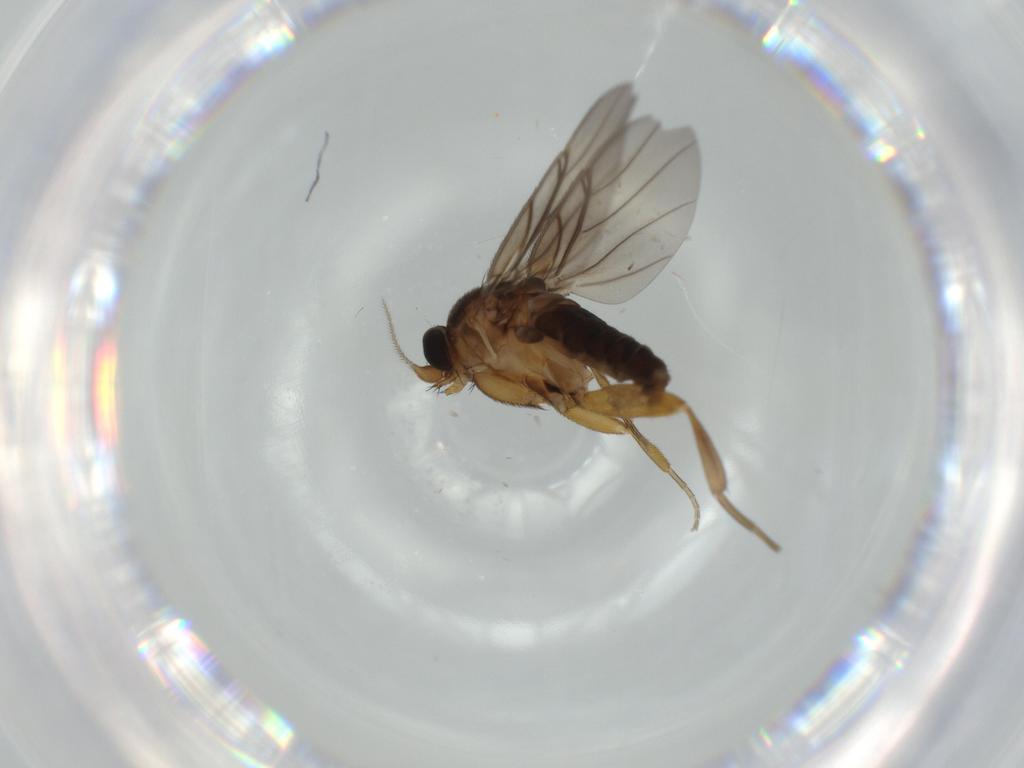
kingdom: Animalia
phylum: Arthropoda
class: Insecta
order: Diptera
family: Sciaridae
